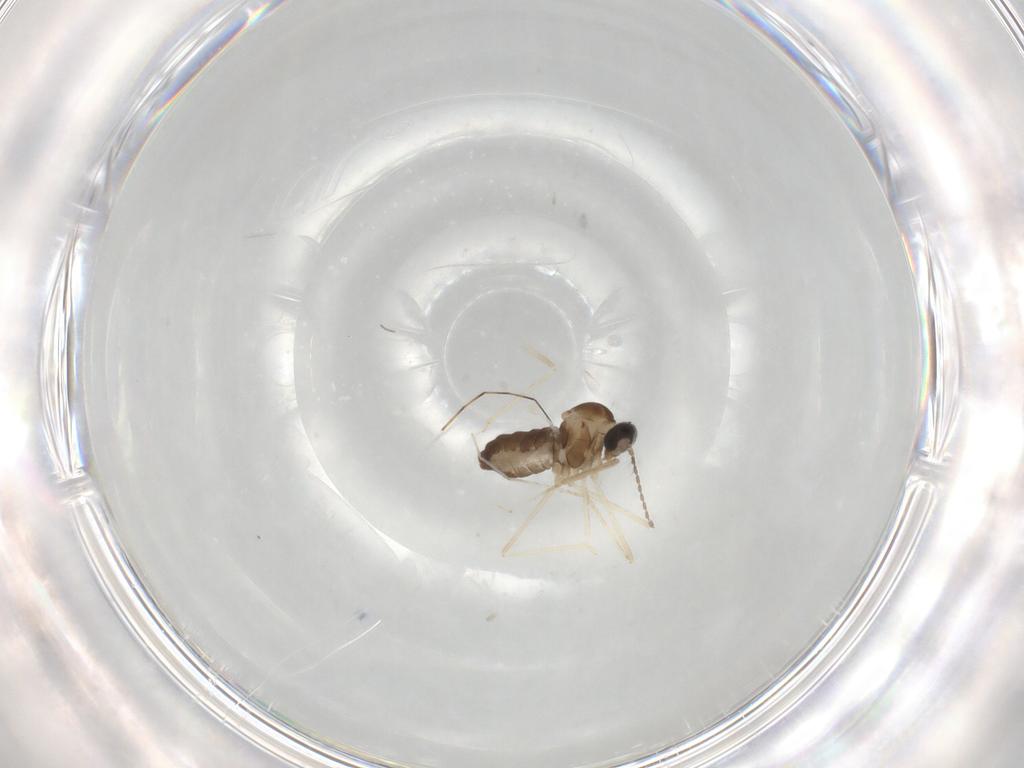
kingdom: Animalia
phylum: Arthropoda
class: Insecta
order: Diptera
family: Cecidomyiidae
